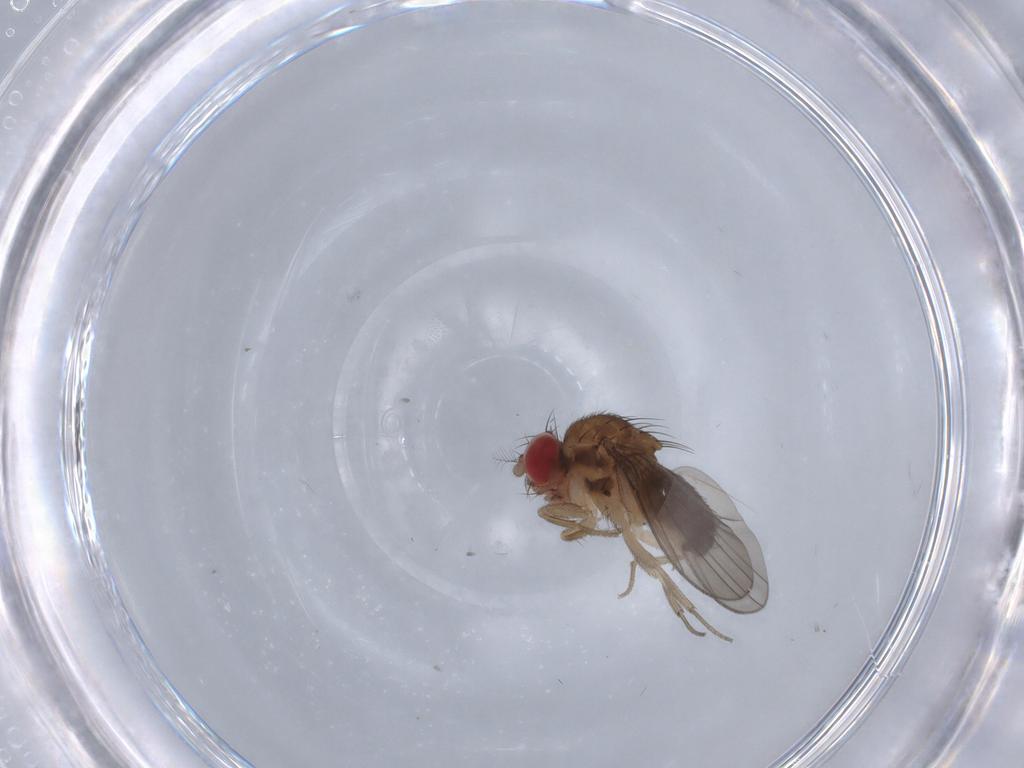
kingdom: Animalia
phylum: Arthropoda
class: Insecta
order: Diptera
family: Drosophilidae
